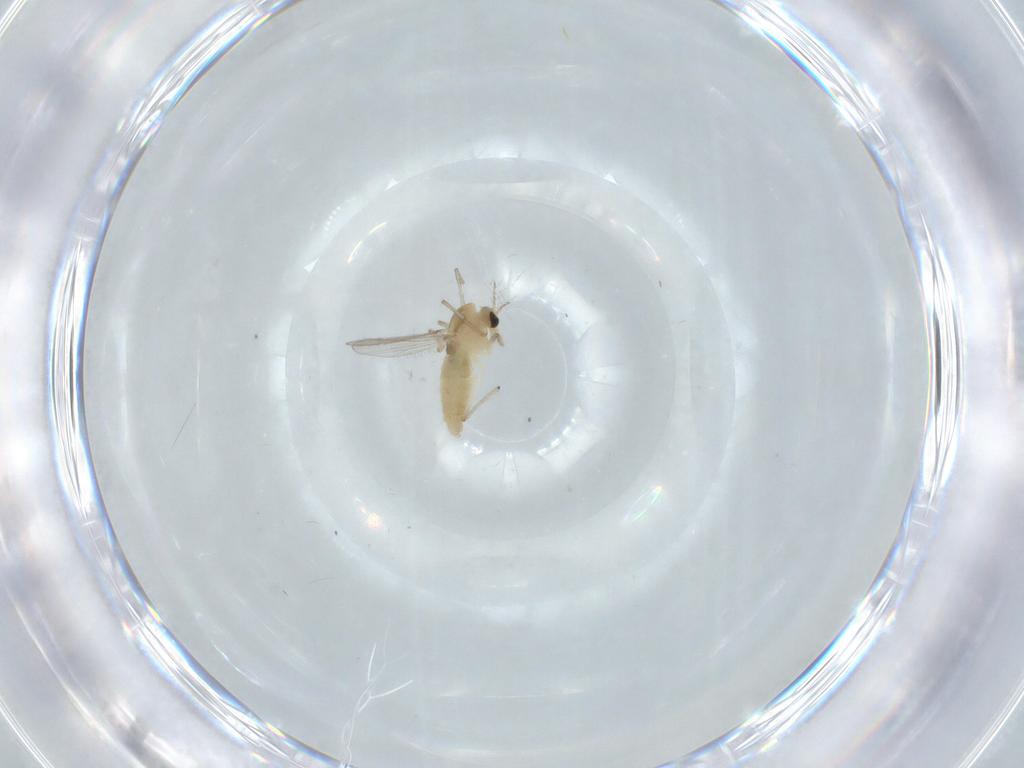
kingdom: Animalia
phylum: Arthropoda
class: Insecta
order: Diptera
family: Chironomidae
